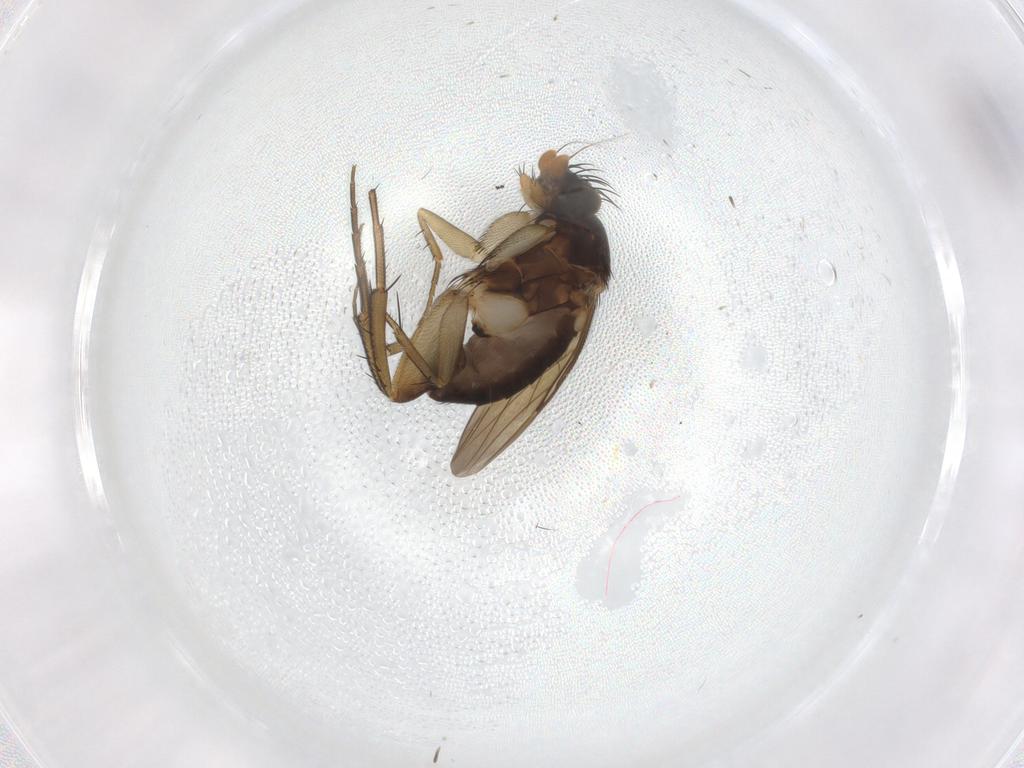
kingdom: Animalia
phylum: Arthropoda
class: Insecta
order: Diptera
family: Phoridae
